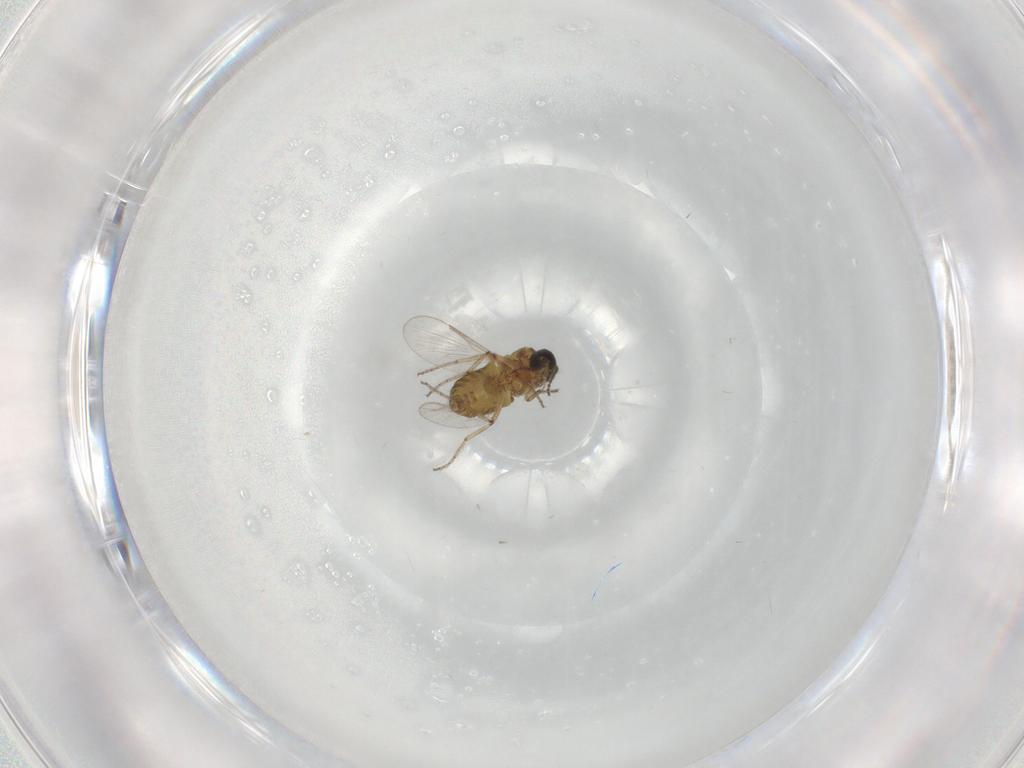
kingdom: Animalia
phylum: Arthropoda
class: Insecta
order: Diptera
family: Ceratopogonidae
